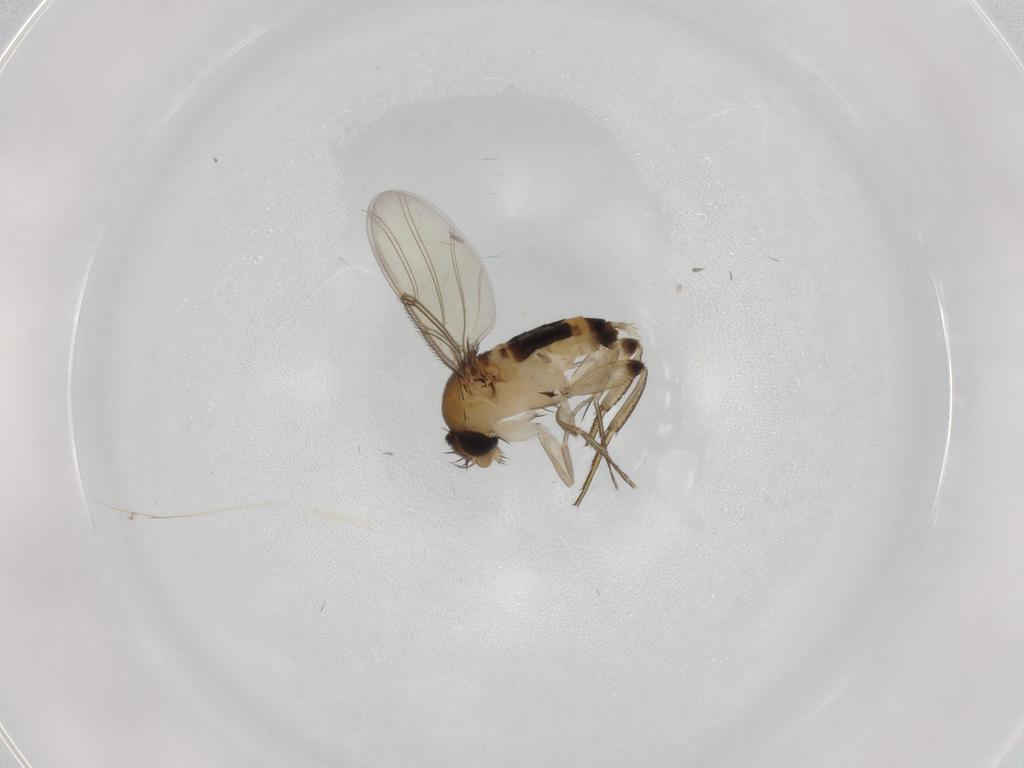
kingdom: Animalia
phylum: Arthropoda
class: Insecta
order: Diptera
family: Phoridae
